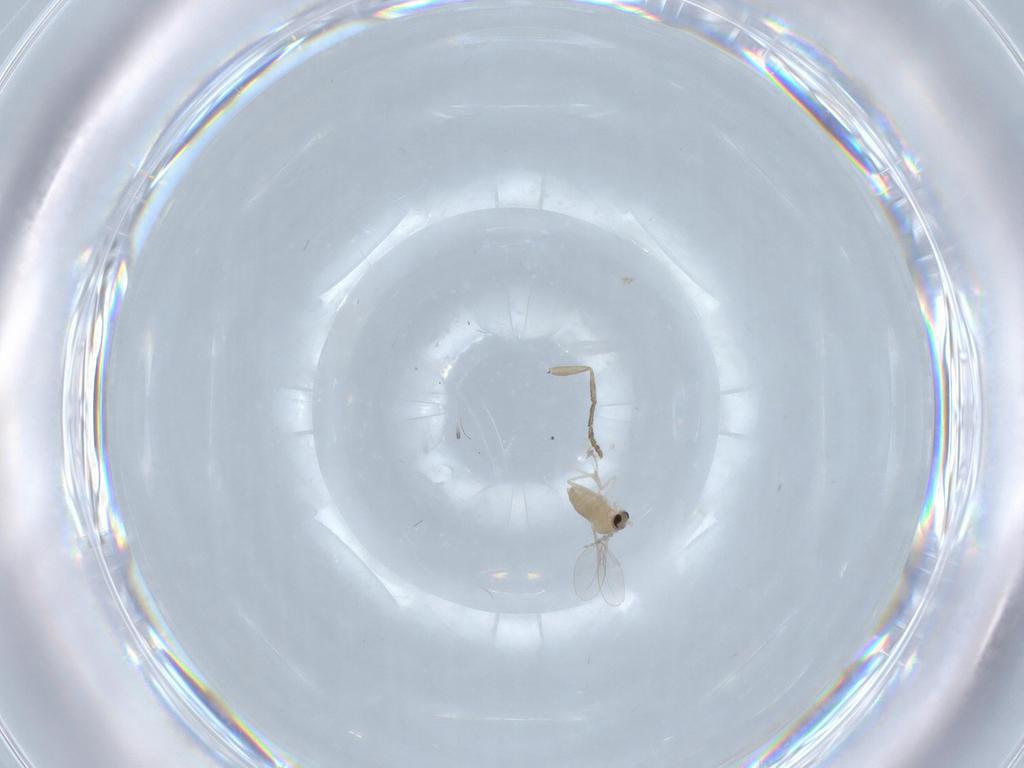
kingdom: Animalia
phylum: Arthropoda
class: Insecta
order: Diptera
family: Cecidomyiidae
